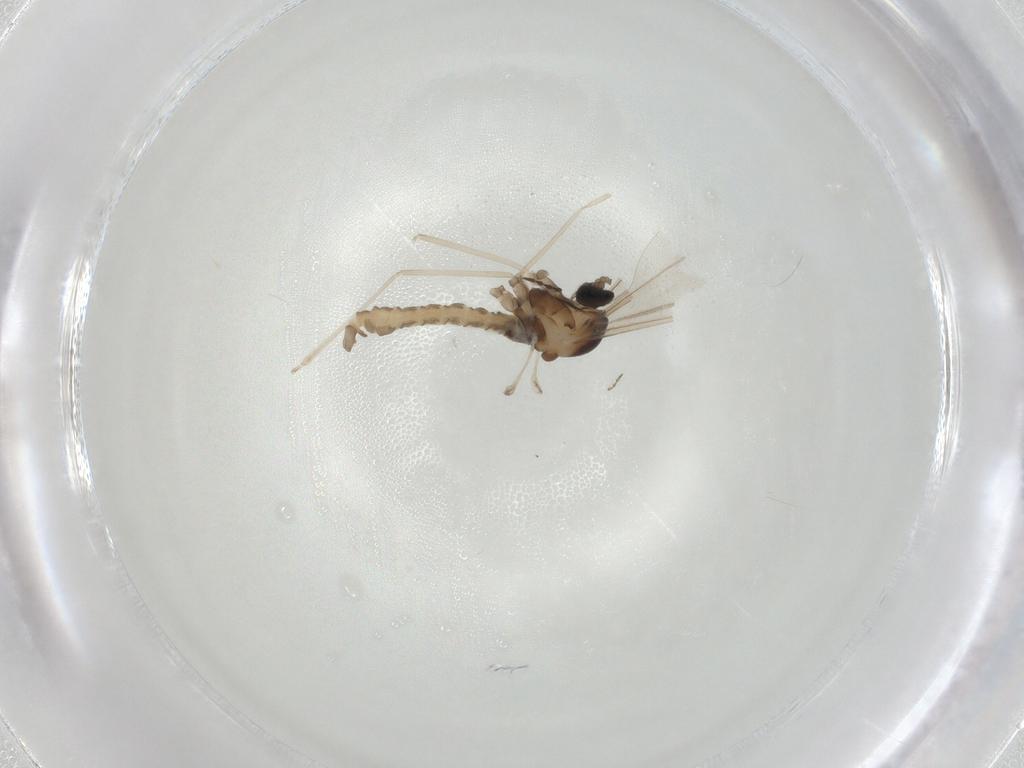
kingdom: Animalia
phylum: Arthropoda
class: Insecta
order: Diptera
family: Cecidomyiidae
